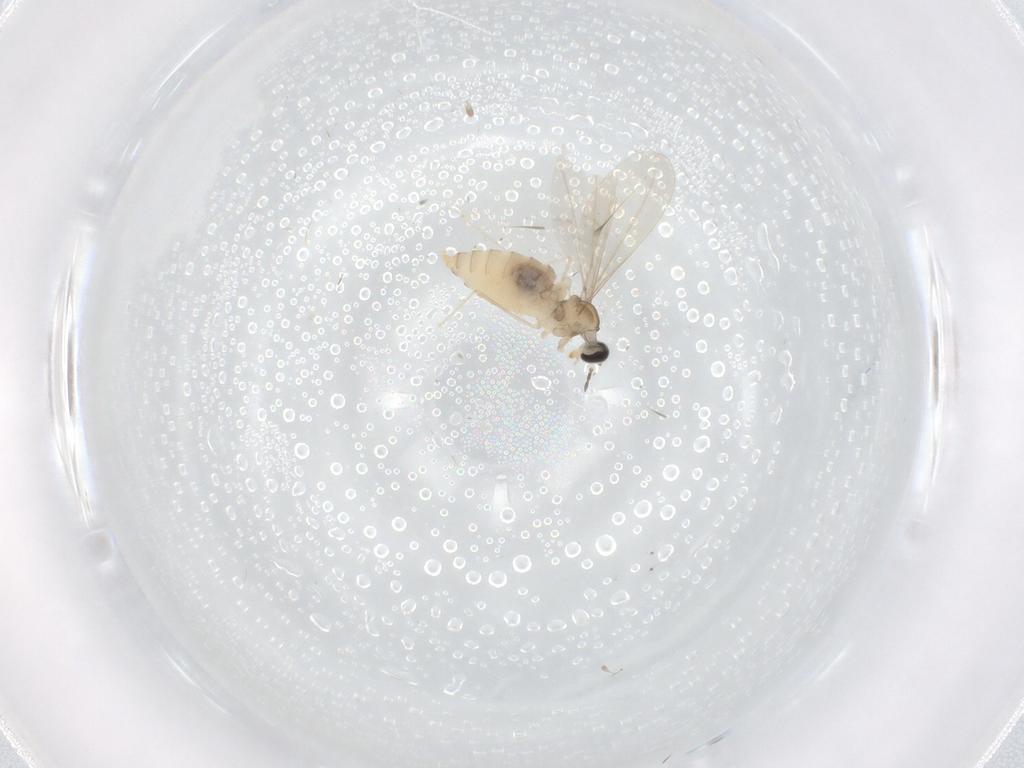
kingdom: Animalia
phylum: Arthropoda
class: Insecta
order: Diptera
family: Cecidomyiidae
